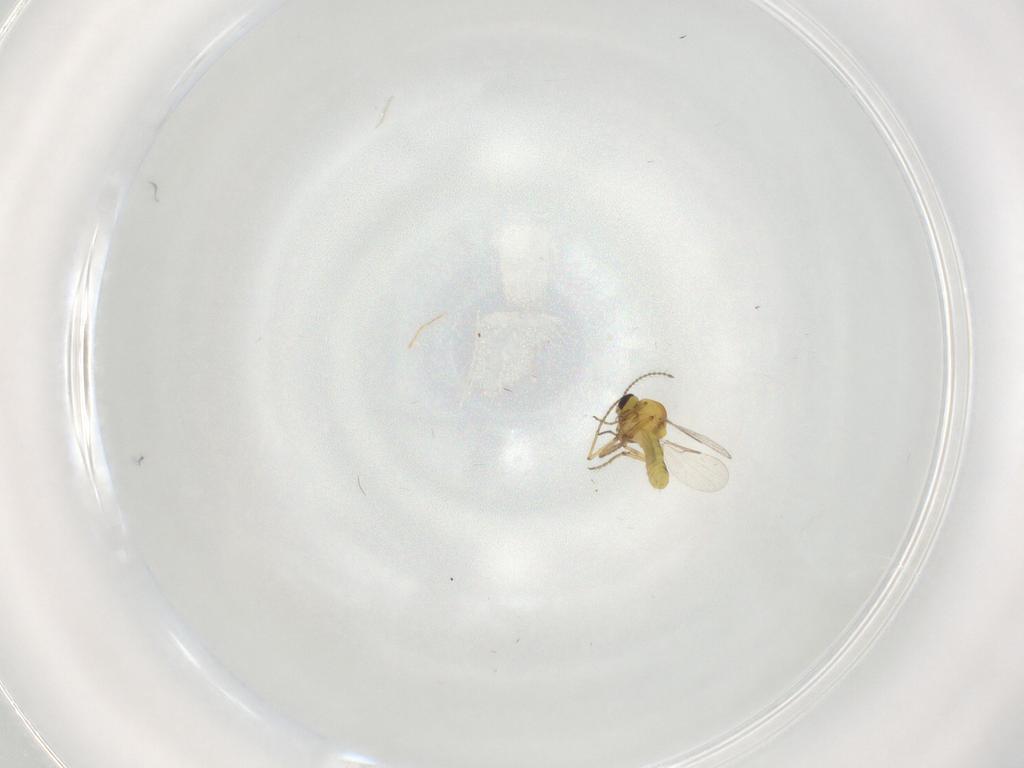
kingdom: Animalia
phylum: Arthropoda
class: Insecta
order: Diptera
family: Ceratopogonidae
